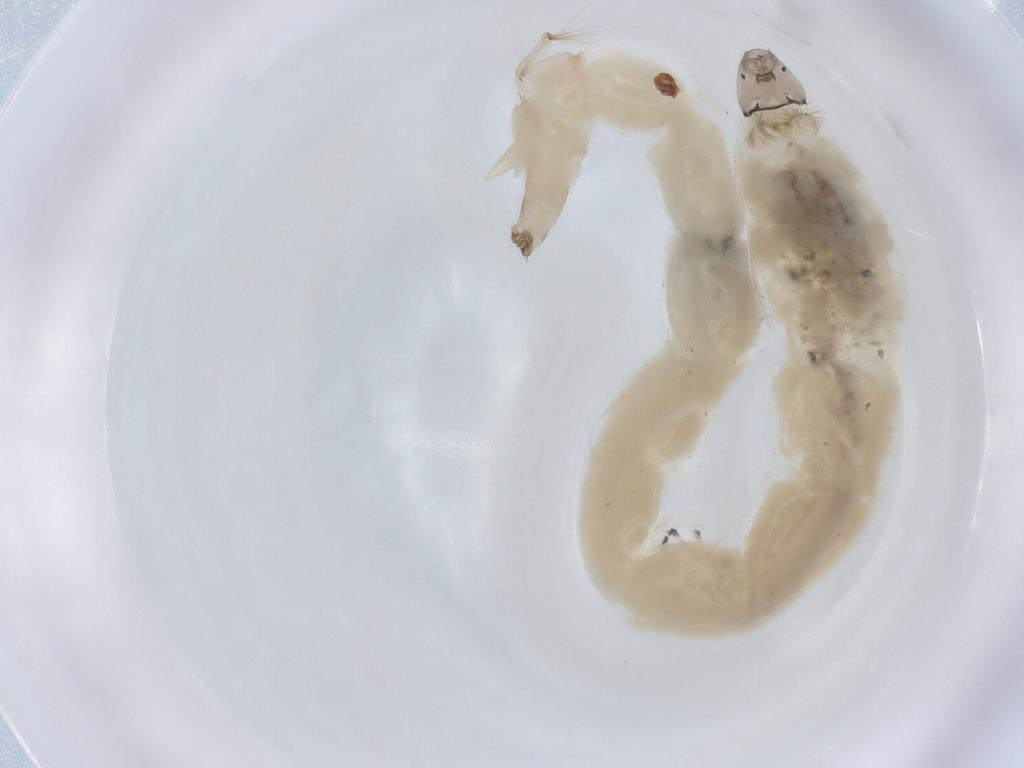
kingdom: Animalia
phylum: Arthropoda
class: Insecta
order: Diptera
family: Chironomidae
